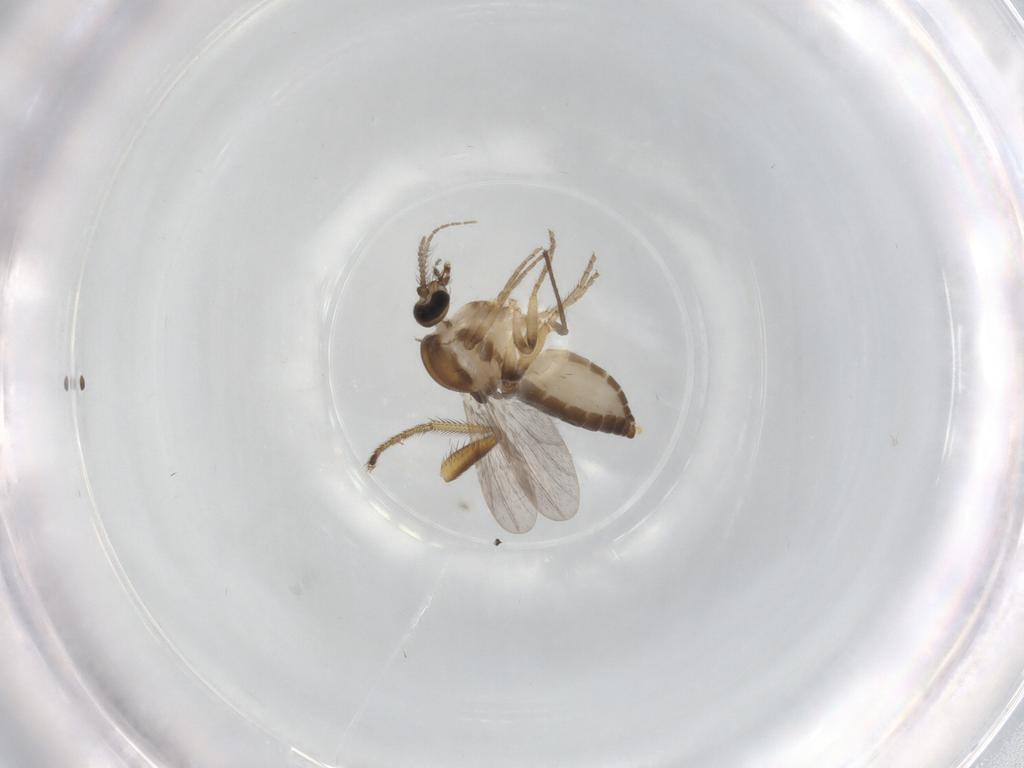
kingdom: Animalia
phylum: Arthropoda
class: Insecta
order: Diptera
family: Ceratopogonidae
